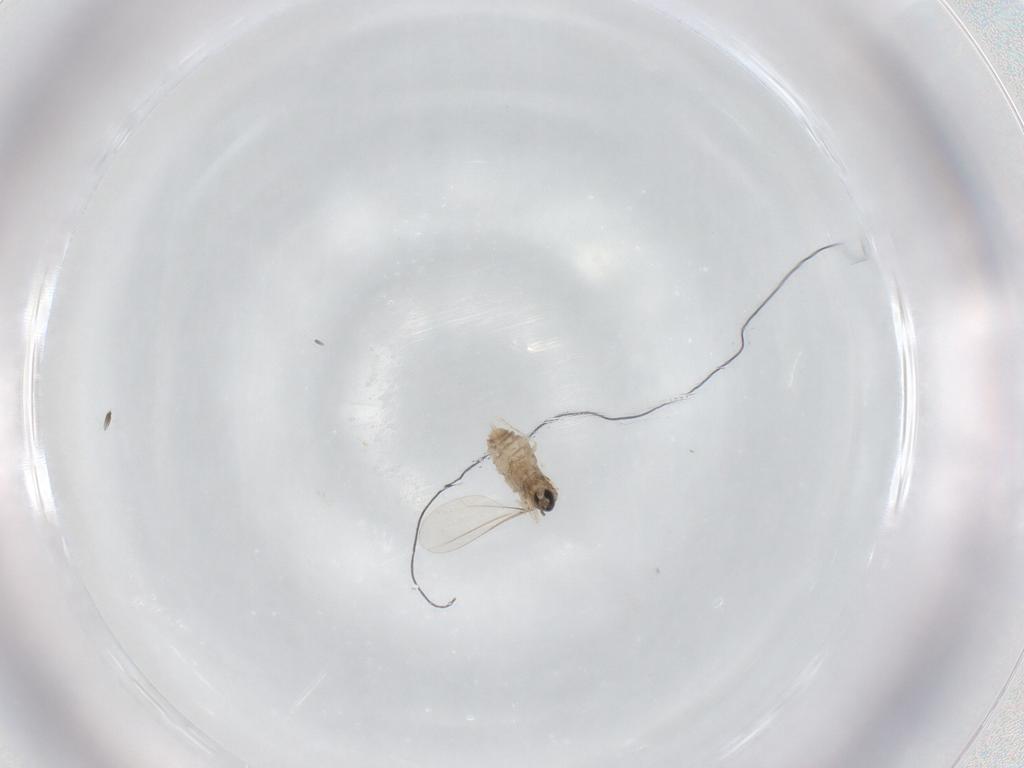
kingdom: Animalia
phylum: Arthropoda
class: Insecta
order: Diptera
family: Cecidomyiidae
